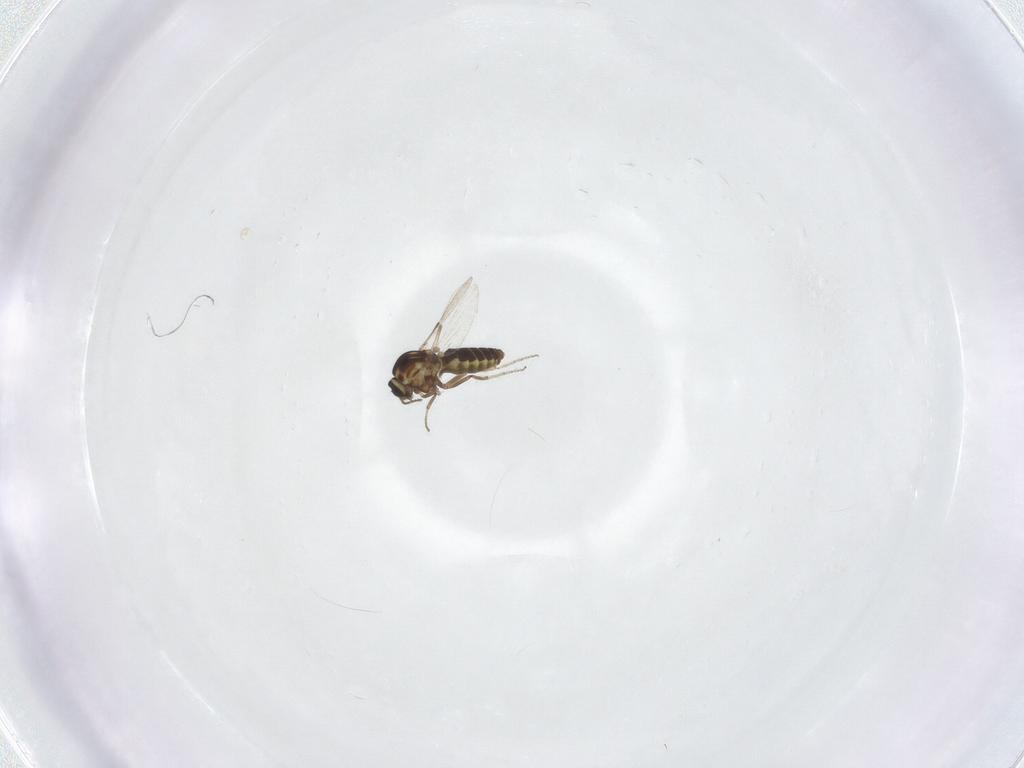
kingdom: Animalia
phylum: Arthropoda
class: Insecta
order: Diptera
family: Ceratopogonidae
